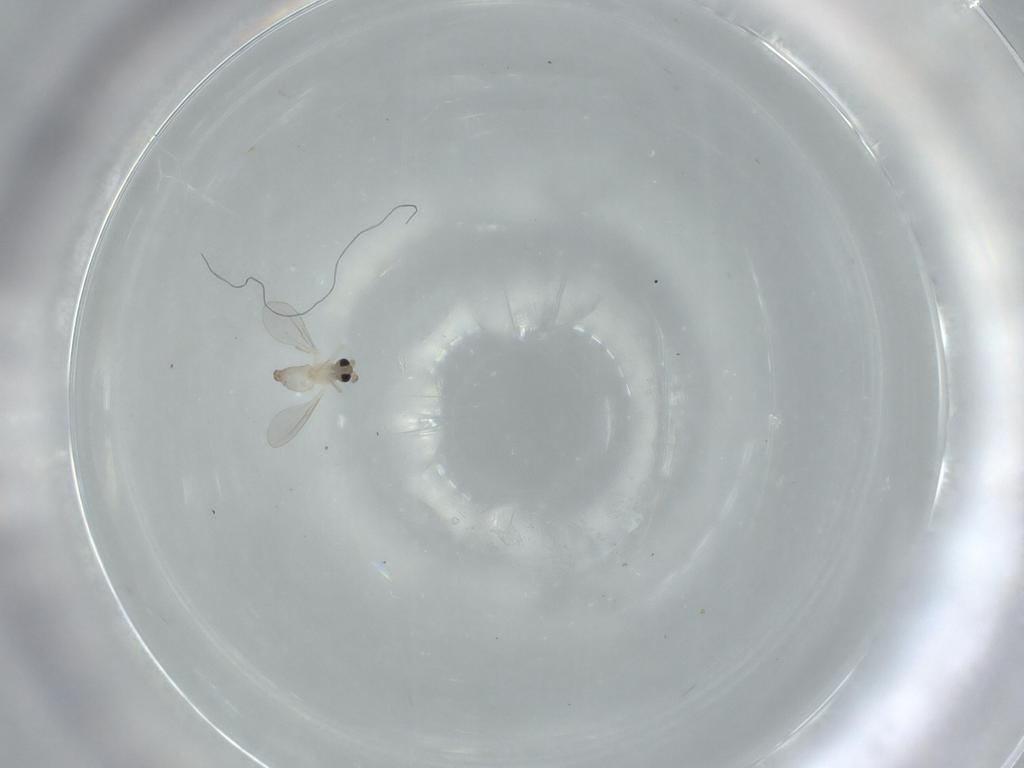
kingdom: Animalia
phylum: Arthropoda
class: Insecta
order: Diptera
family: Cecidomyiidae
